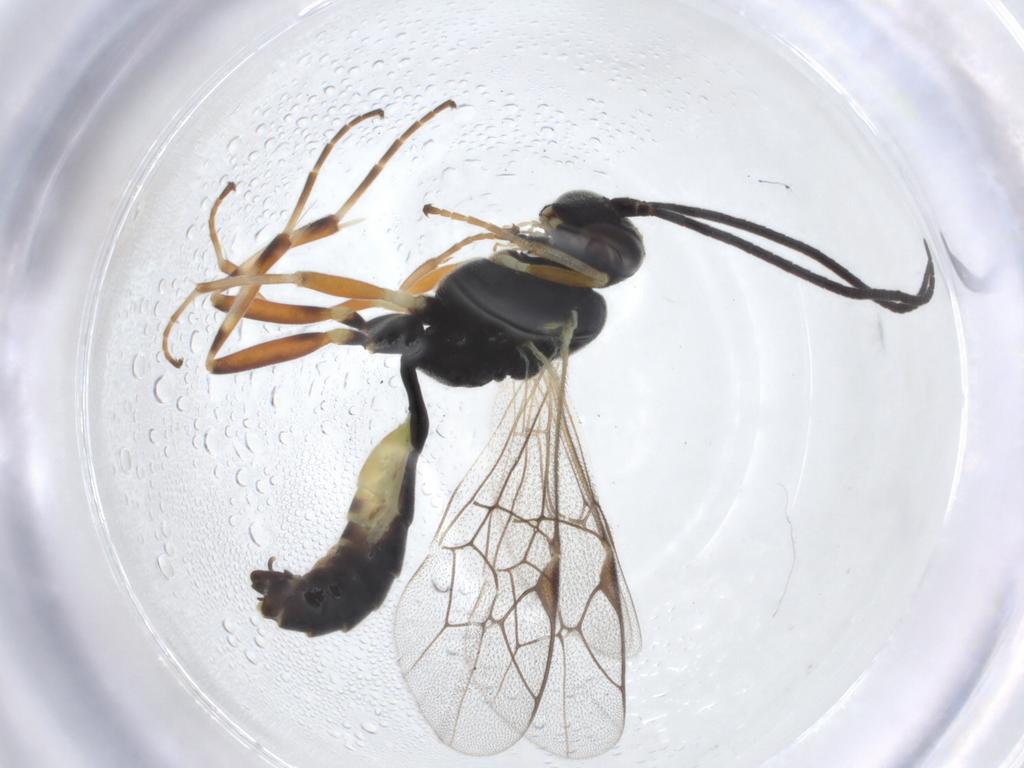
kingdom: Animalia
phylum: Arthropoda
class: Insecta
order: Hymenoptera
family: Ichneumonidae
